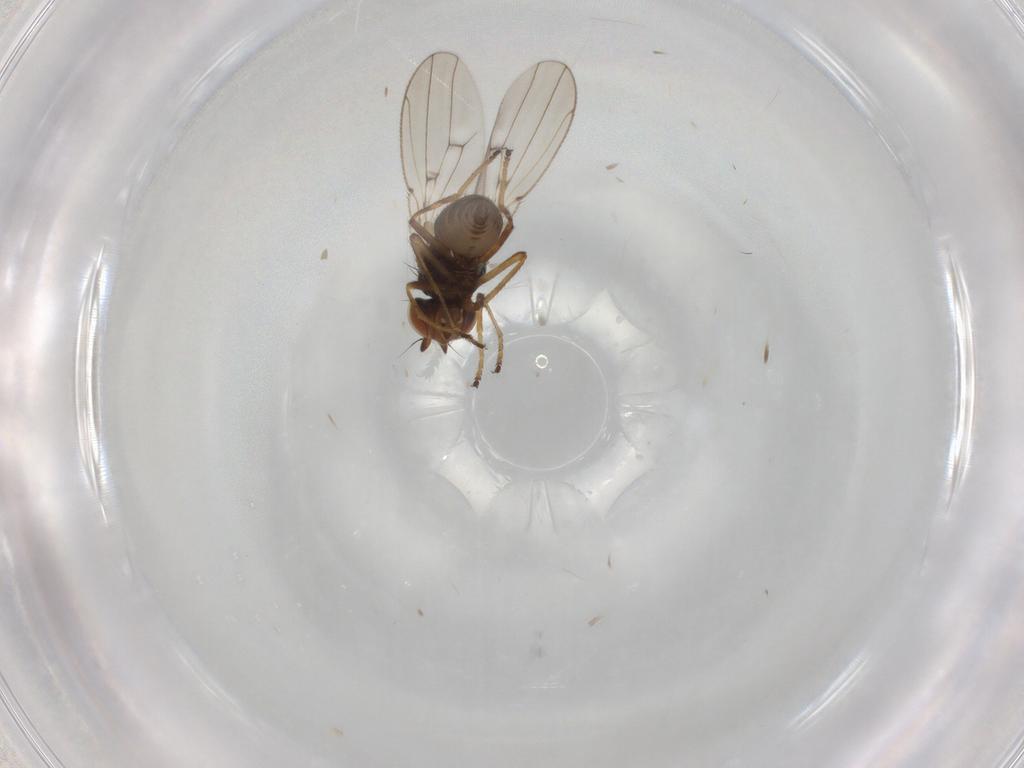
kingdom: Animalia
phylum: Arthropoda
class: Insecta
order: Diptera
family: Ephydridae
